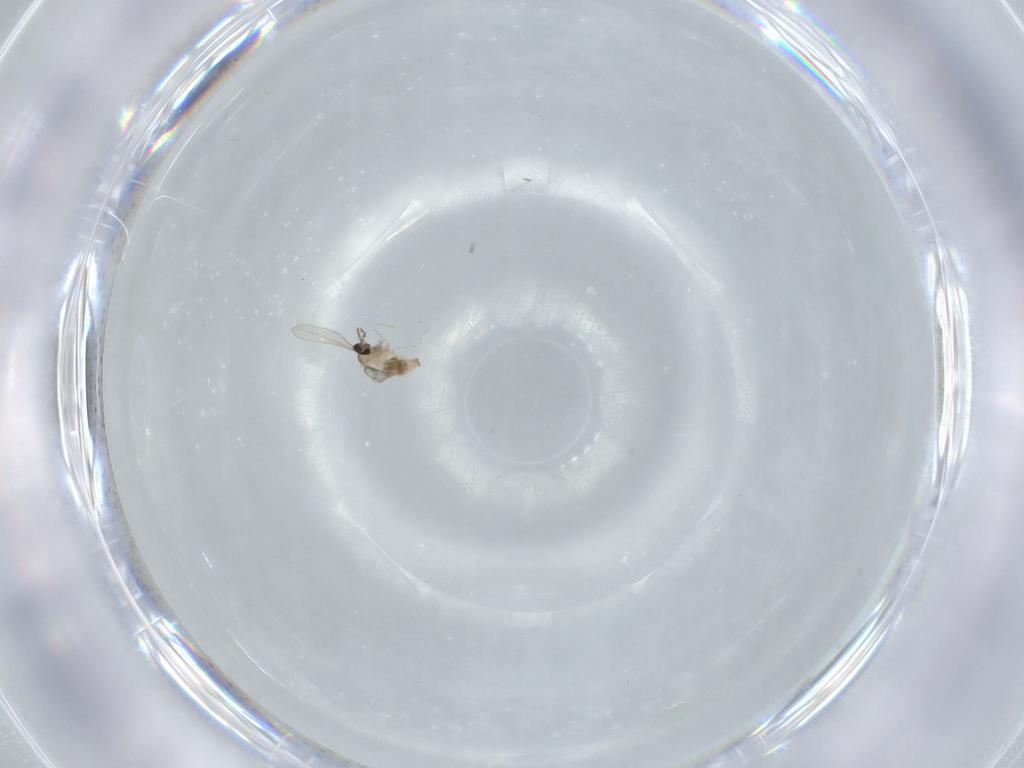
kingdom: Animalia
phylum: Arthropoda
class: Insecta
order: Diptera
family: Cecidomyiidae
